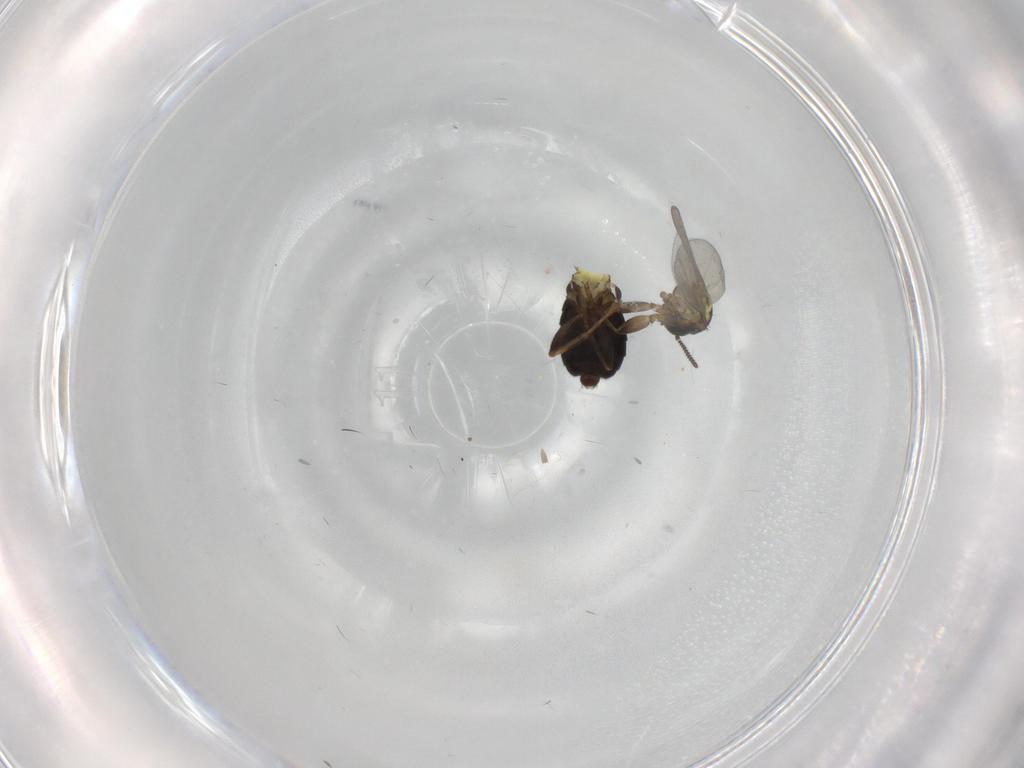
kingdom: Animalia
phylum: Arthropoda
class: Insecta
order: Diptera
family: Scatopsidae
